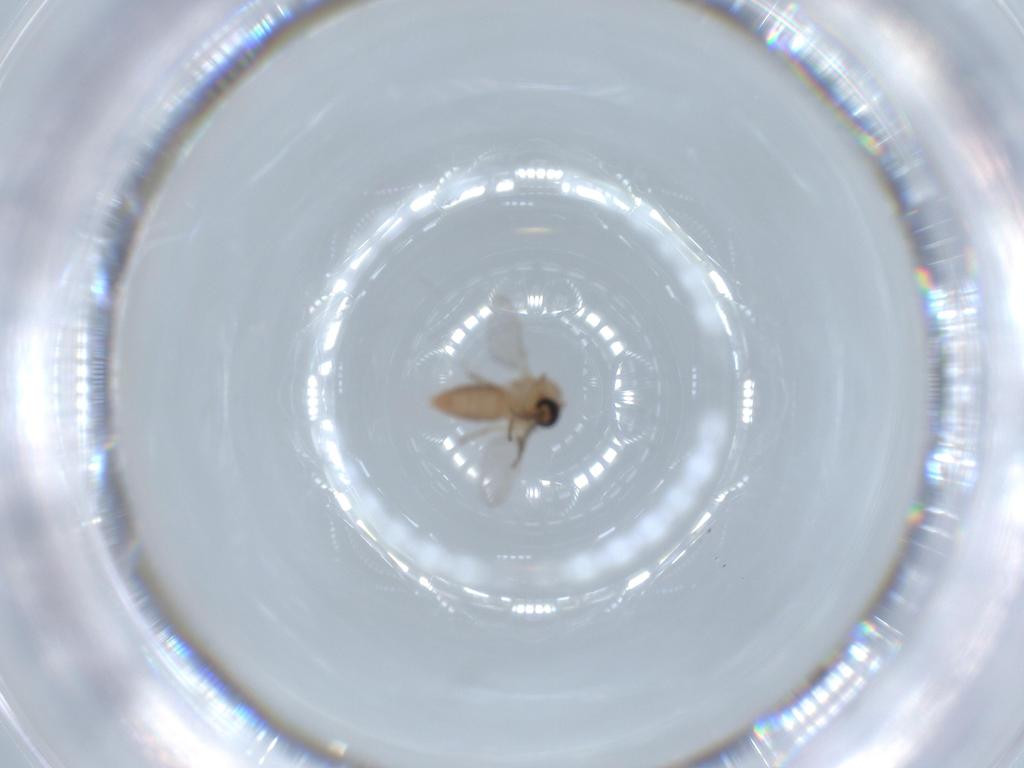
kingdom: Animalia
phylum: Arthropoda
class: Insecta
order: Diptera
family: Ceratopogonidae
